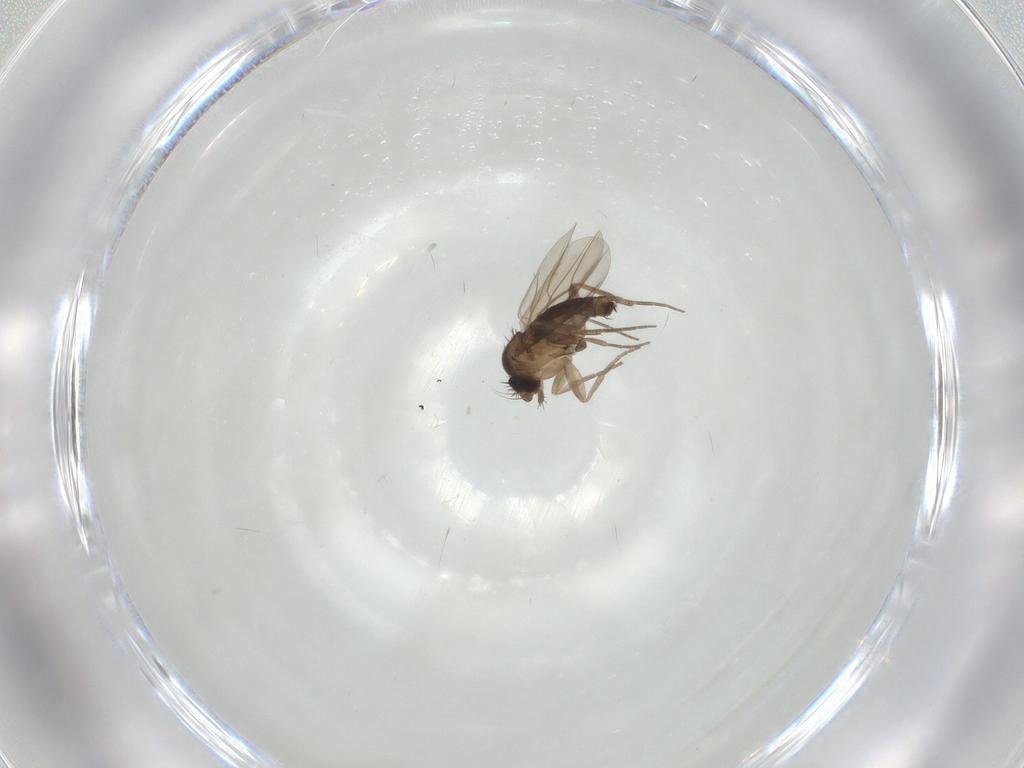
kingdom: Animalia
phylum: Arthropoda
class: Insecta
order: Diptera
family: Phoridae
